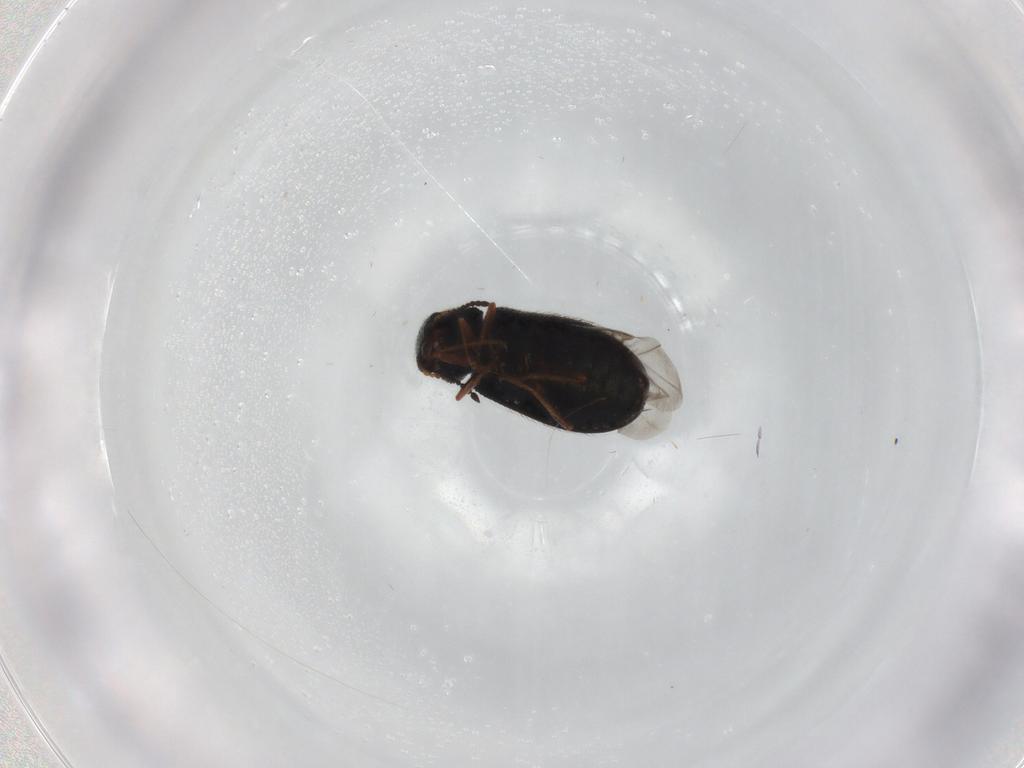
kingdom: Animalia
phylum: Arthropoda
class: Insecta
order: Coleoptera
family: Melyridae
